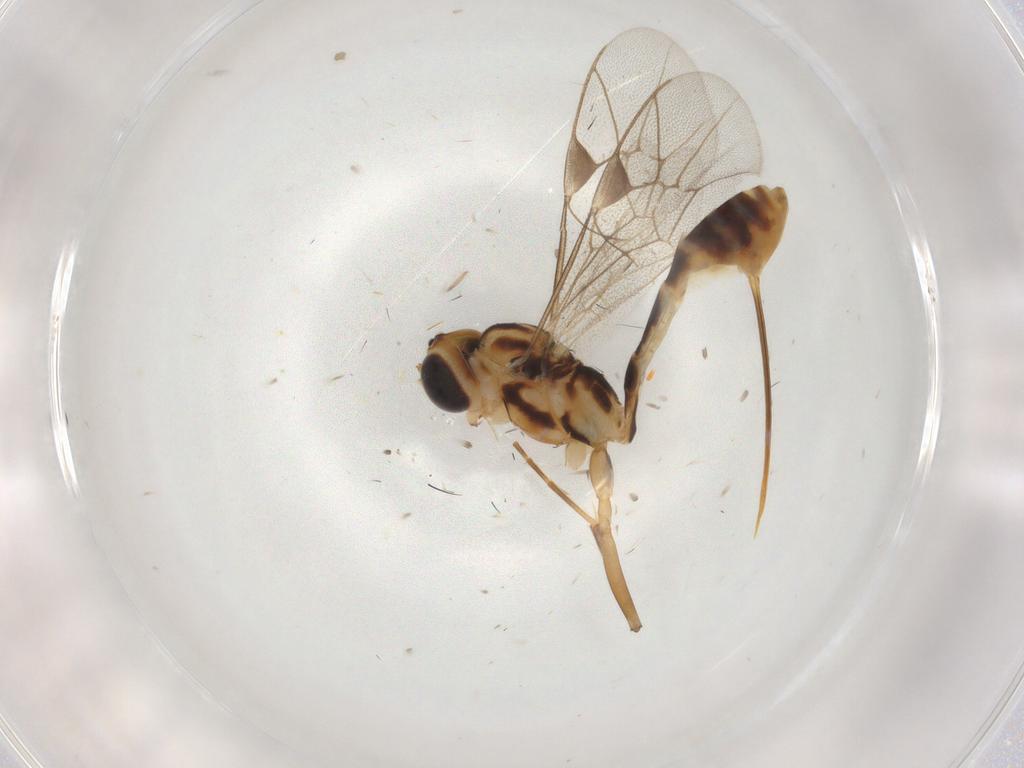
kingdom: Animalia
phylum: Arthropoda
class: Insecta
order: Hymenoptera
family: Ichneumonidae
